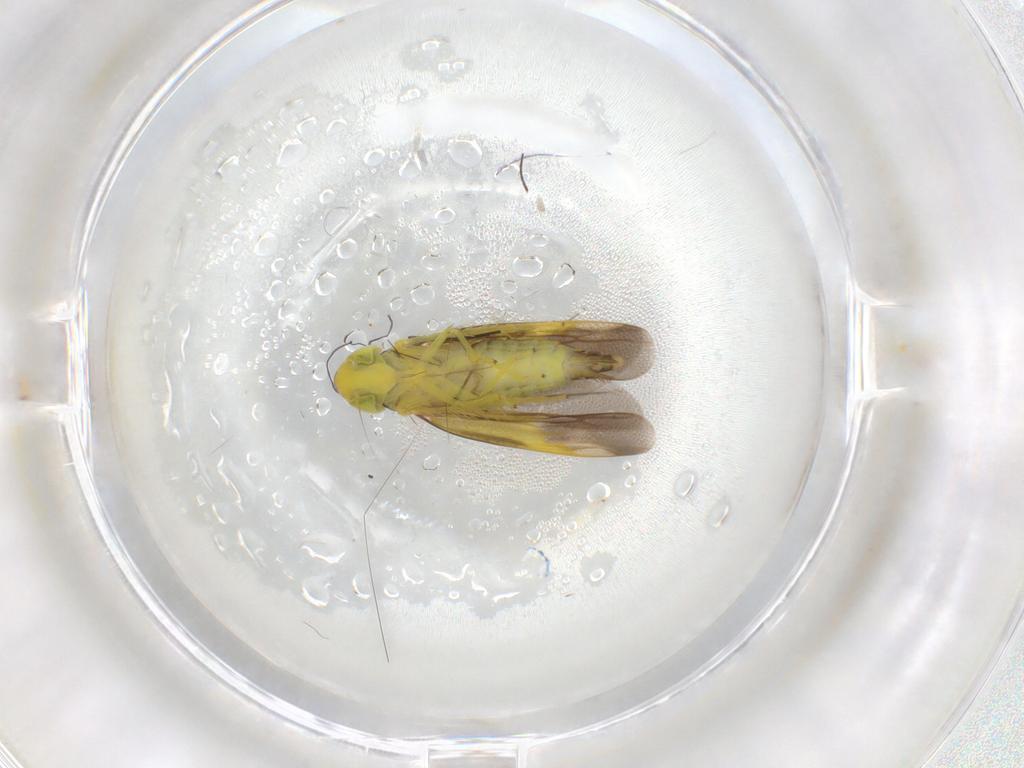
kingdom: Animalia
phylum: Arthropoda
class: Insecta
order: Hemiptera
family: Cicadellidae
